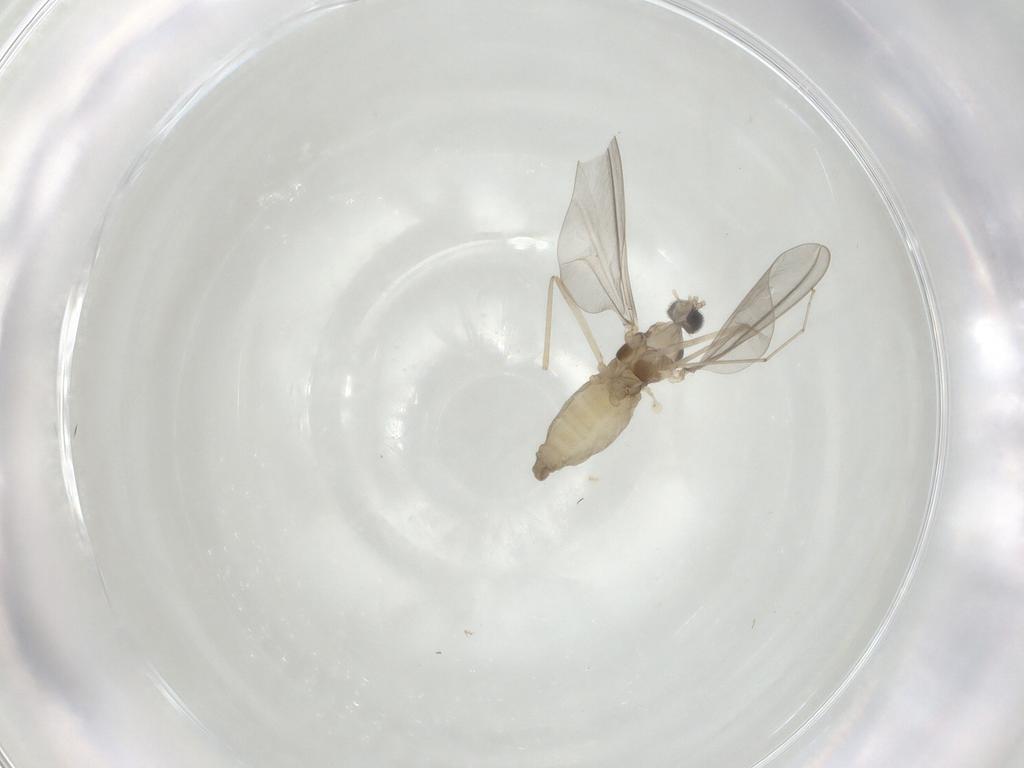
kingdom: Animalia
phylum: Arthropoda
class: Insecta
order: Diptera
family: Cecidomyiidae
